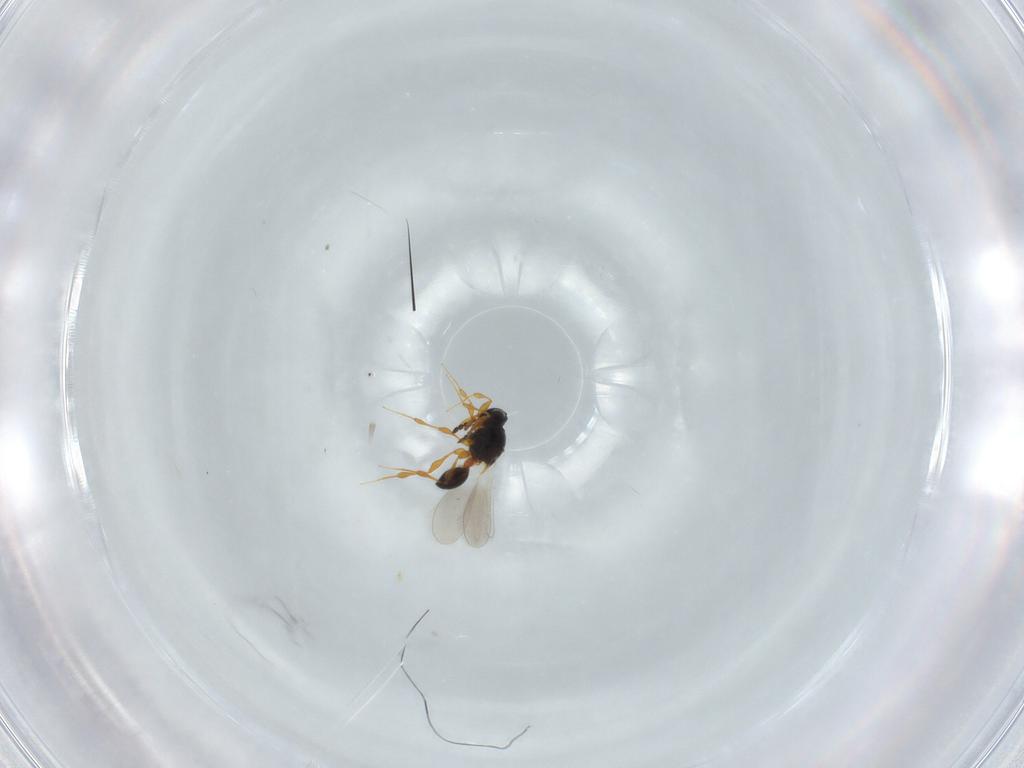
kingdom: Animalia
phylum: Arthropoda
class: Insecta
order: Hymenoptera
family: Platygastridae
